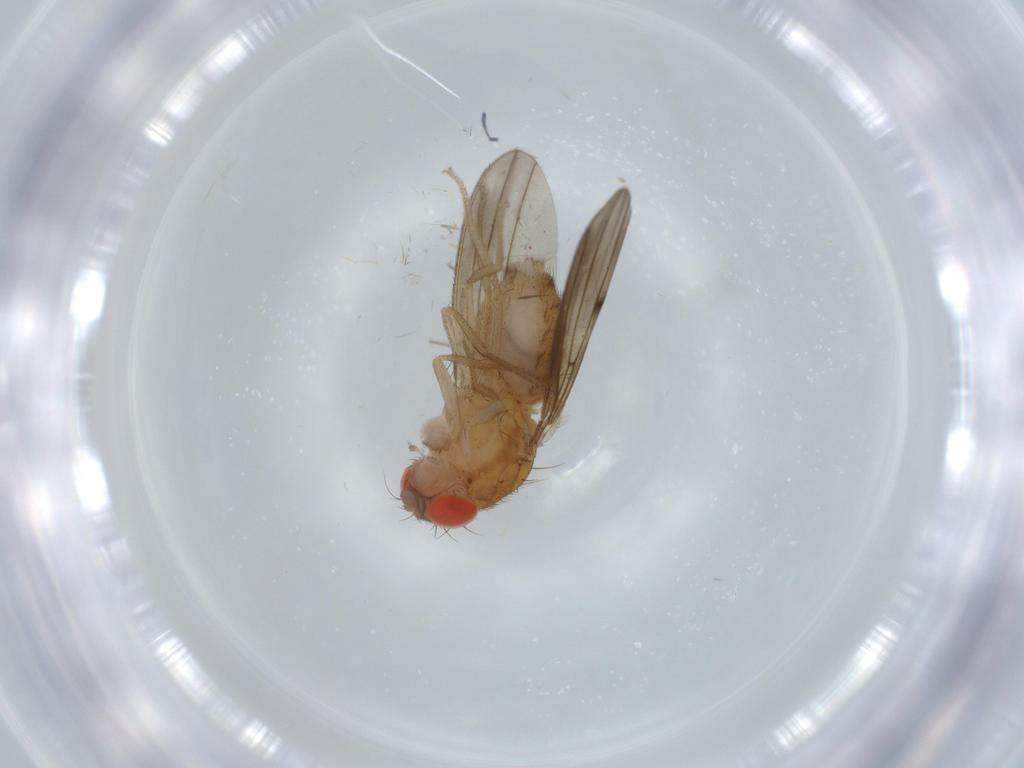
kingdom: Animalia
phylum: Arthropoda
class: Insecta
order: Diptera
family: Drosophilidae
